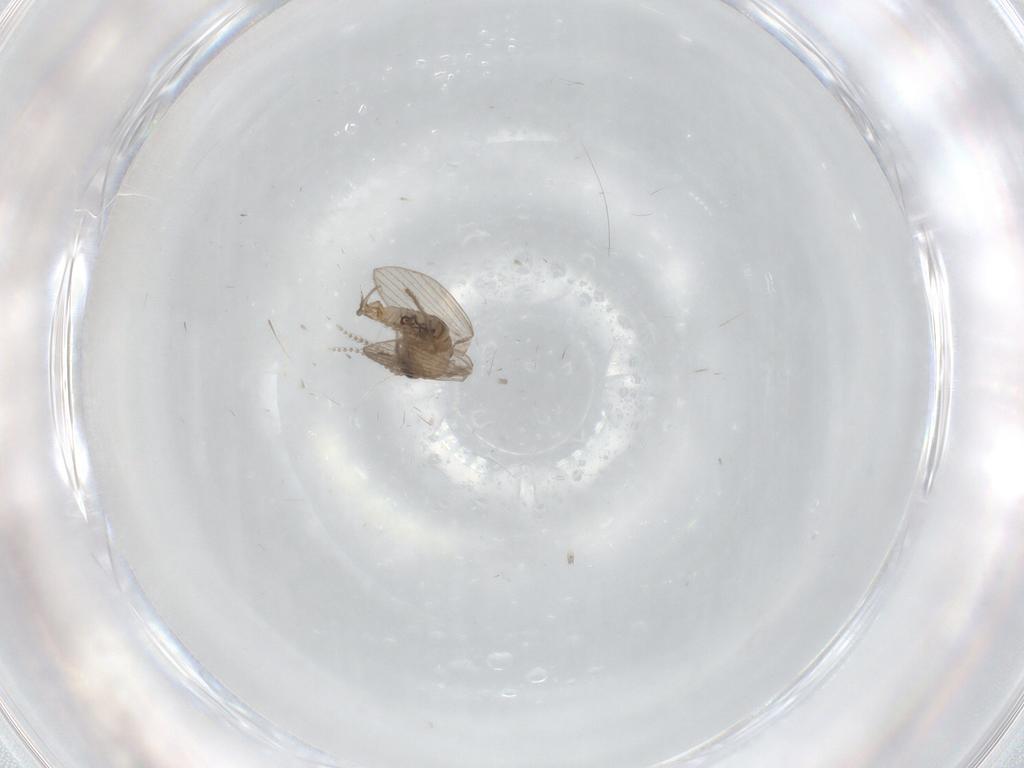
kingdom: Animalia
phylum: Arthropoda
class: Insecta
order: Diptera
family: Psychodidae
